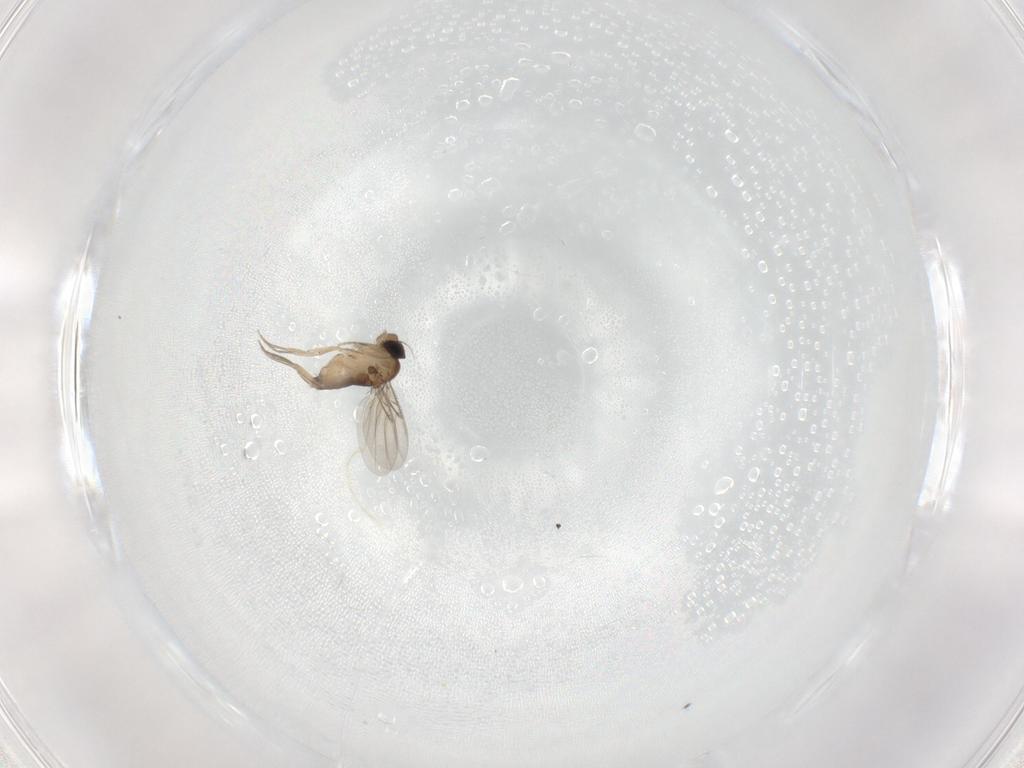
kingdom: Animalia
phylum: Arthropoda
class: Insecta
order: Diptera
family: Phoridae
